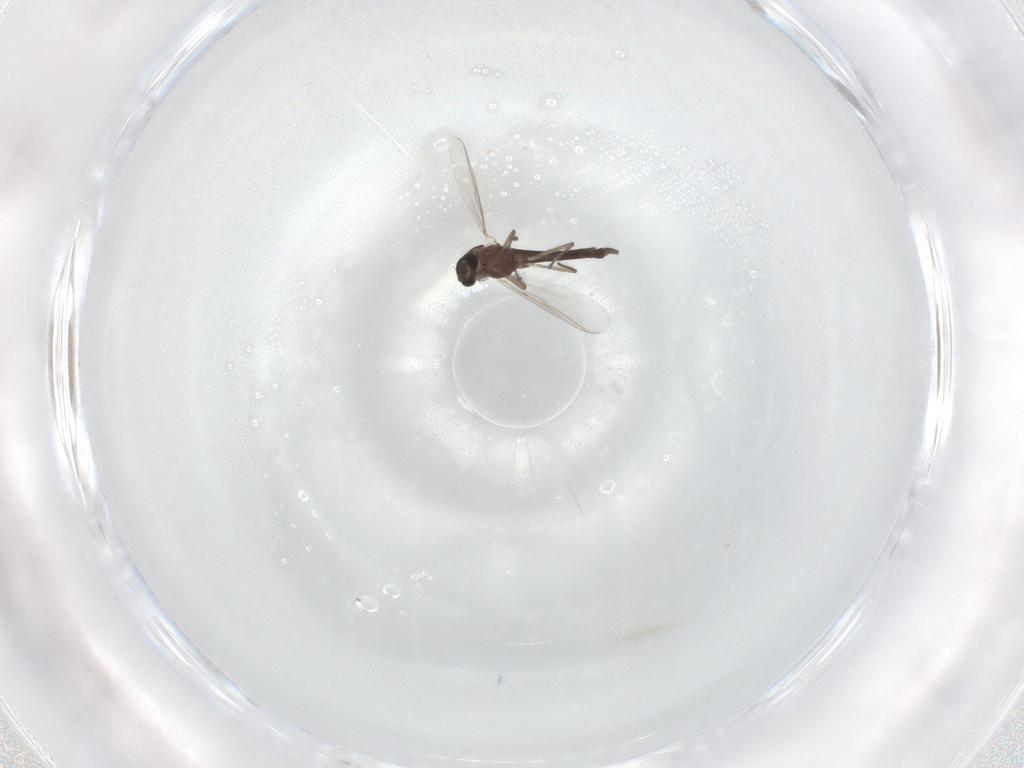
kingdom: Animalia
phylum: Arthropoda
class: Insecta
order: Diptera
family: Chironomidae
